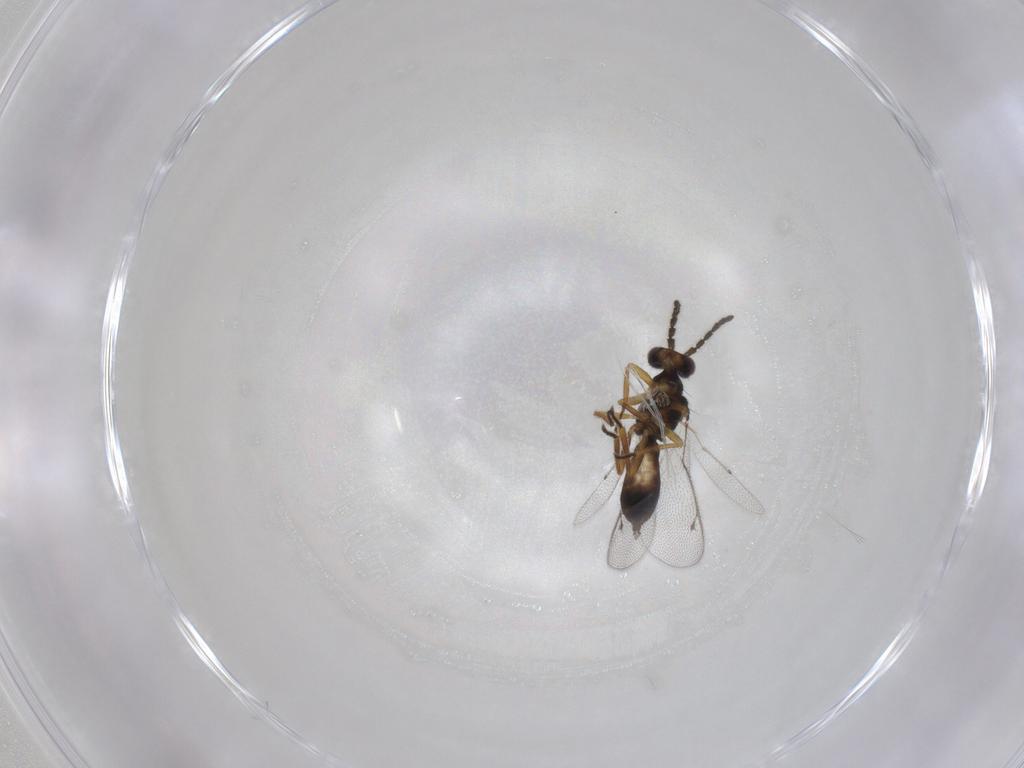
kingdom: Animalia
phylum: Arthropoda
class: Insecta
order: Hymenoptera
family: Eulophidae
